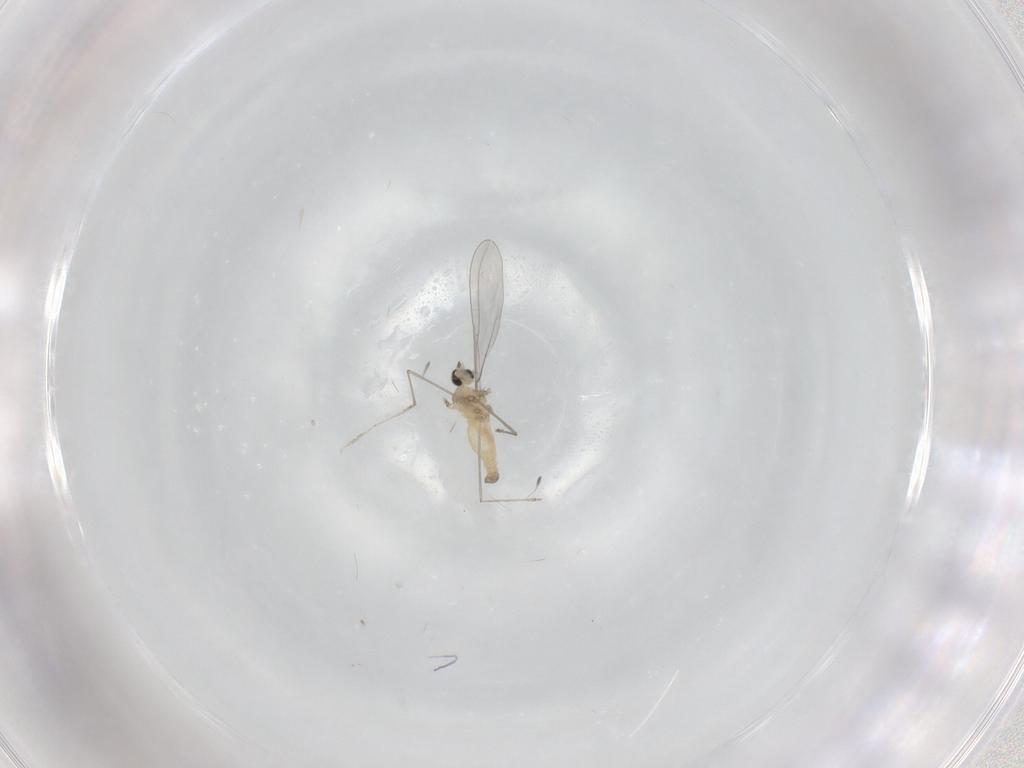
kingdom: Animalia
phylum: Arthropoda
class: Insecta
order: Diptera
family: Cecidomyiidae
